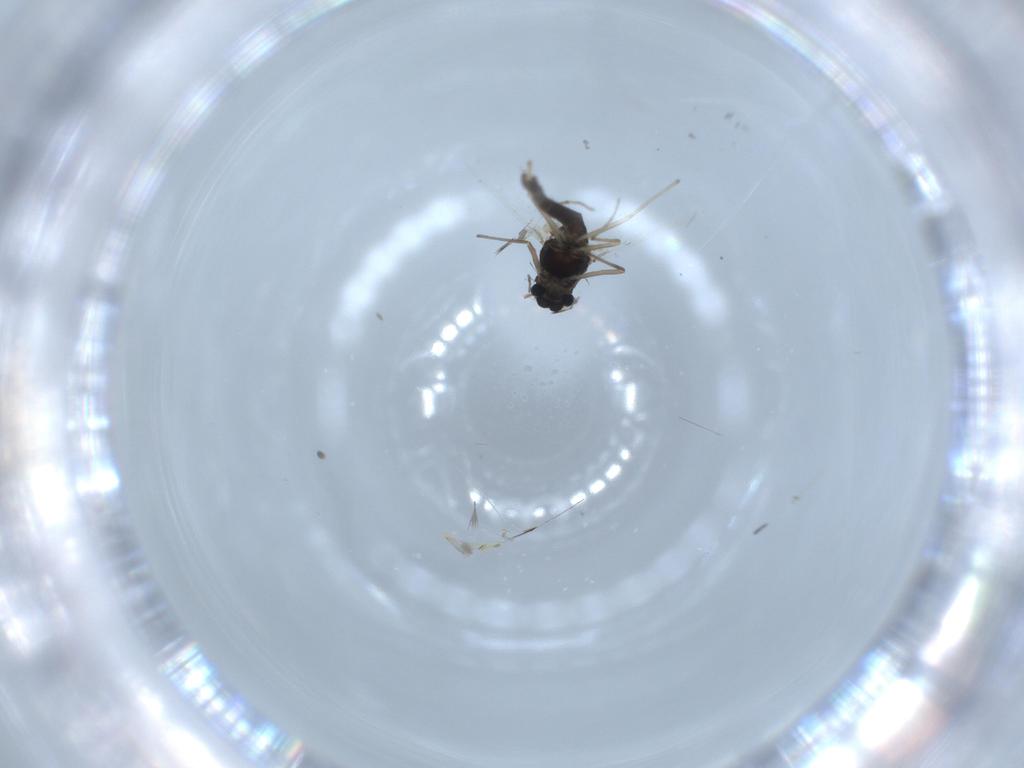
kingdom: Animalia
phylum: Arthropoda
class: Insecta
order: Diptera
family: Chironomidae
